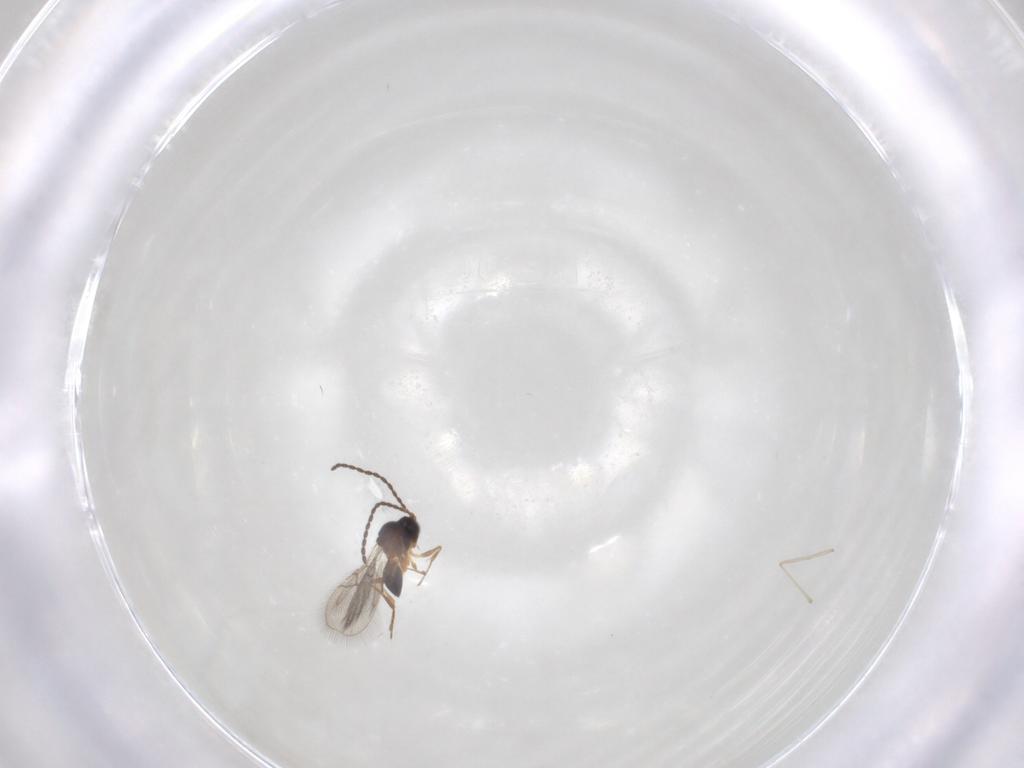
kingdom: Animalia
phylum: Arthropoda
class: Insecta
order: Hymenoptera
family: Figitidae
